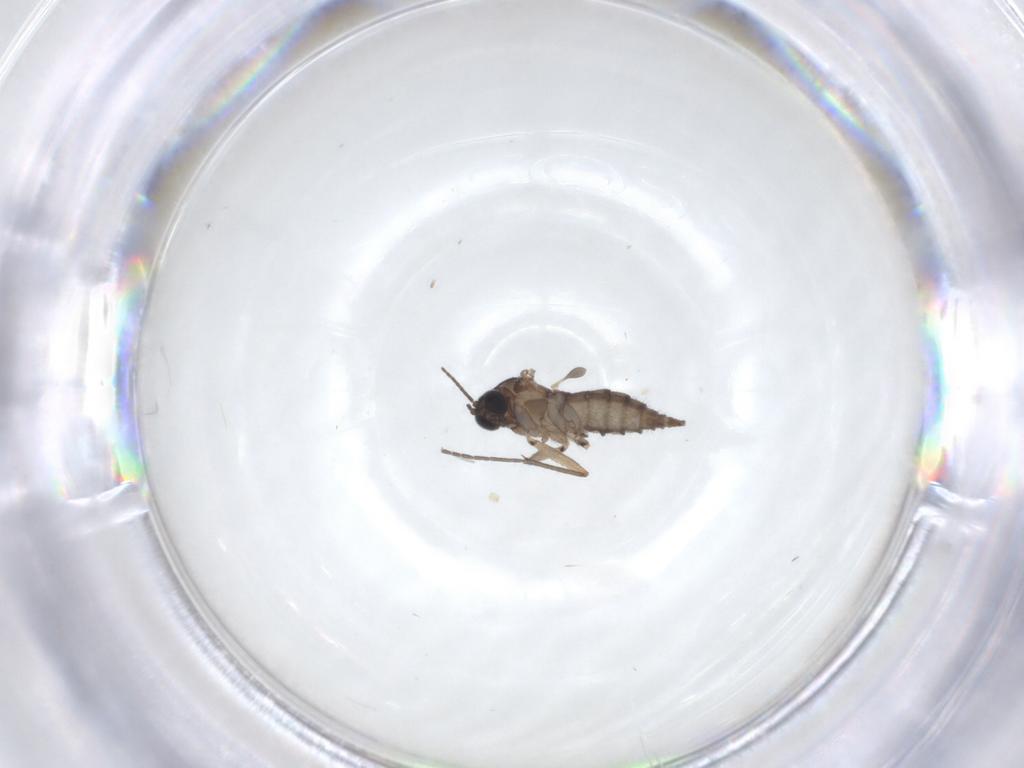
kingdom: Animalia
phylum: Arthropoda
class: Insecta
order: Diptera
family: Sciaridae
